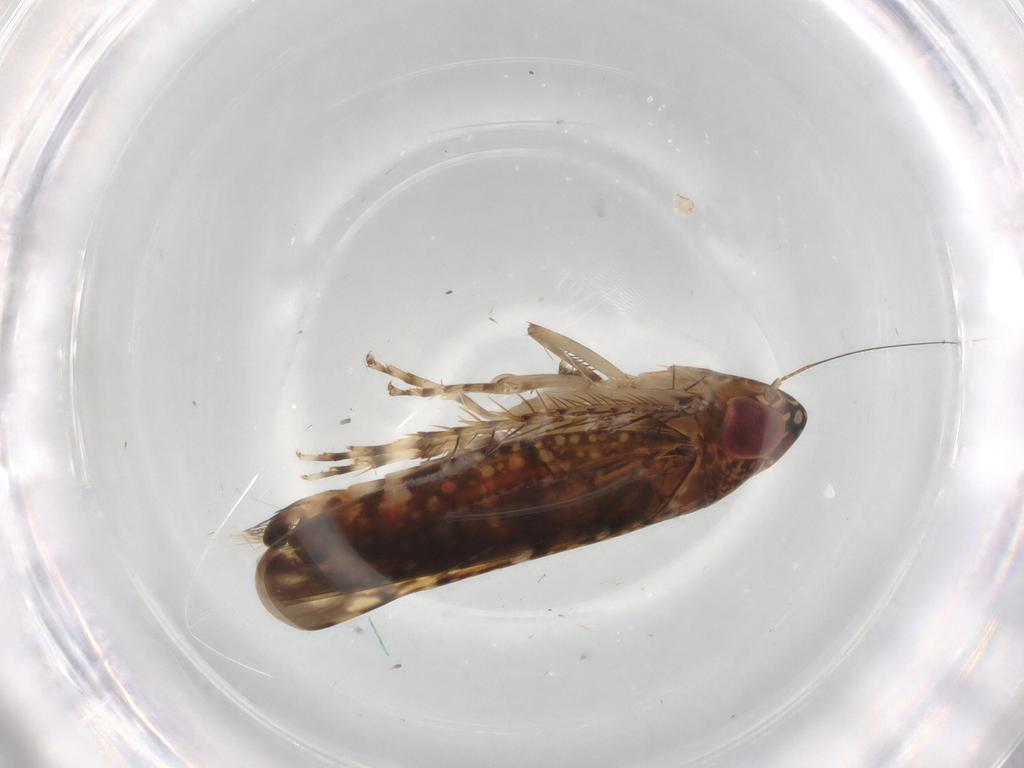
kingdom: Animalia
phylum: Arthropoda
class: Insecta
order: Hemiptera
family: Cicadellidae
